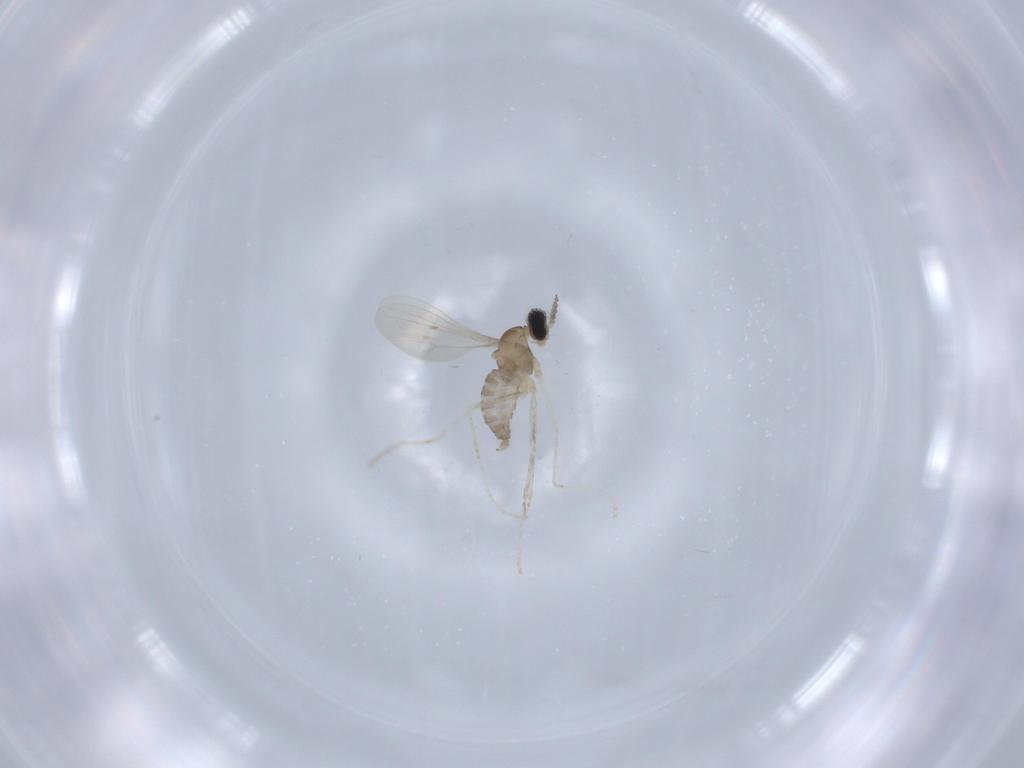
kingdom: Animalia
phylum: Arthropoda
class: Insecta
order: Diptera
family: Cecidomyiidae
